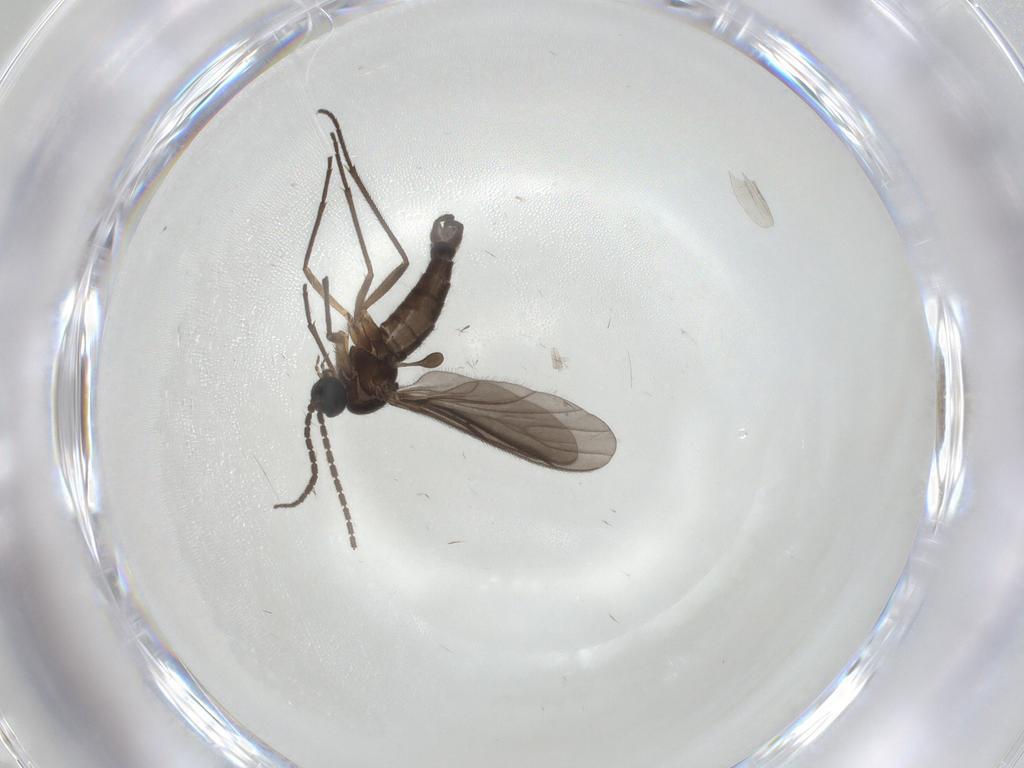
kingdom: Animalia
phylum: Arthropoda
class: Insecta
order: Diptera
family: Sciaridae
